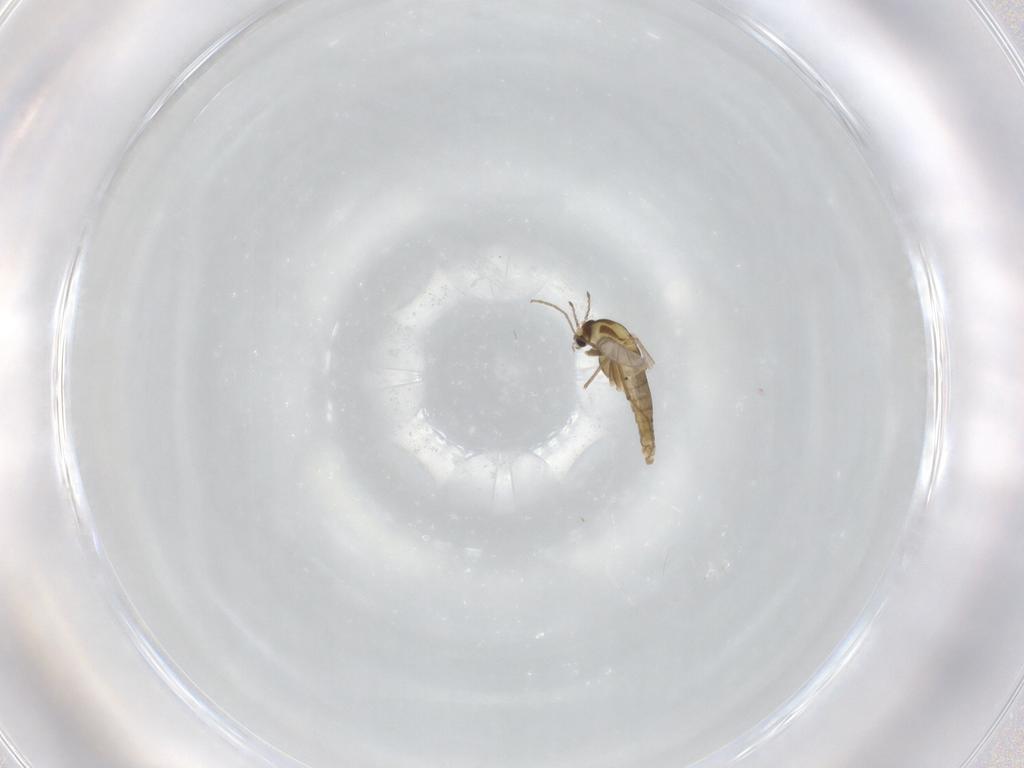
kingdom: Animalia
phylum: Arthropoda
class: Insecta
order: Diptera
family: Chironomidae
